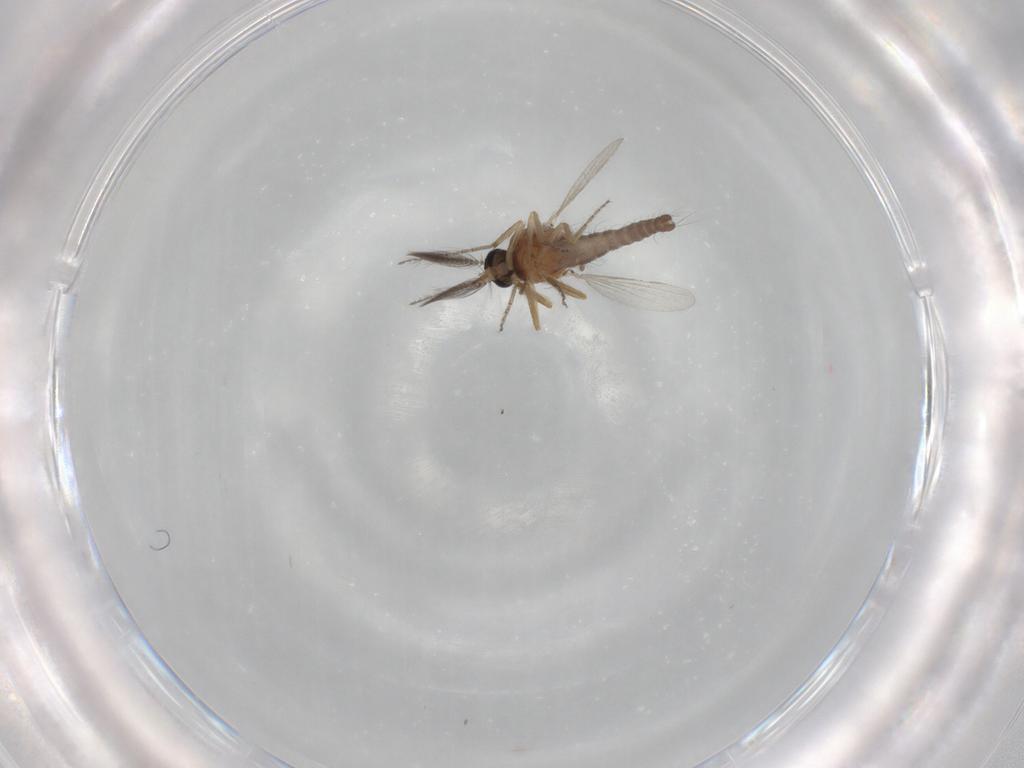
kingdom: Animalia
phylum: Arthropoda
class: Insecta
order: Diptera
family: Ceratopogonidae
